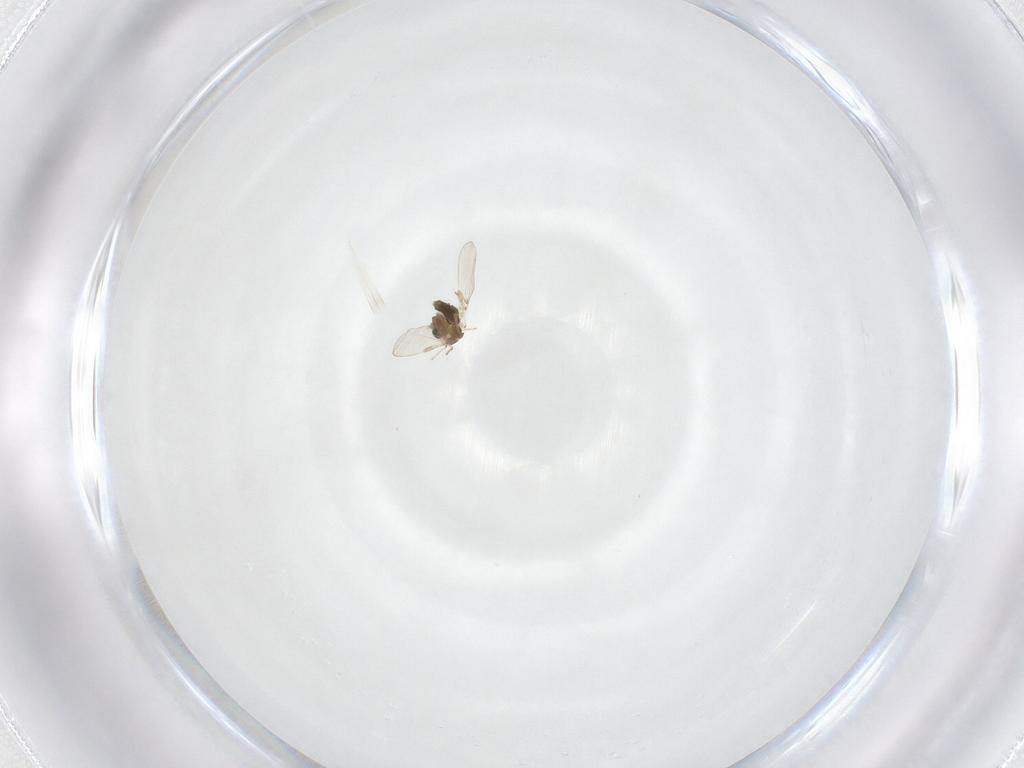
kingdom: Animalia
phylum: Arthropoda
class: Insecta
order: Diptera
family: Chironomidae
